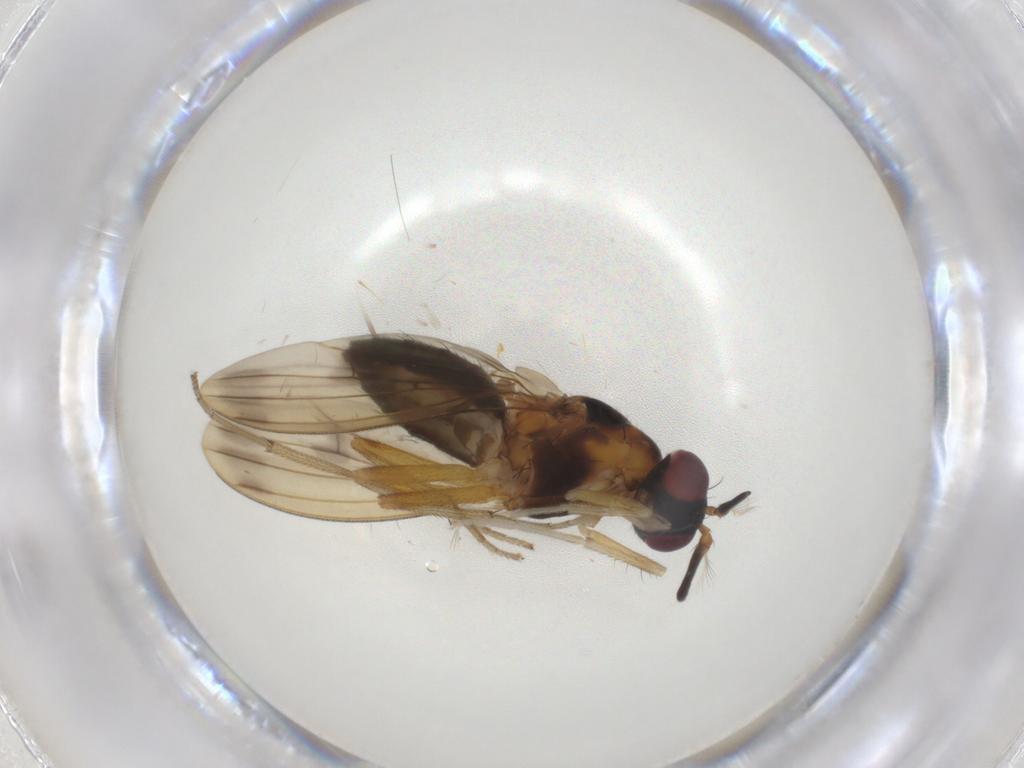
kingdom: Animalia
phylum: Arthropoda
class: Insecta
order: Diptera
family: Lauxaniidae
